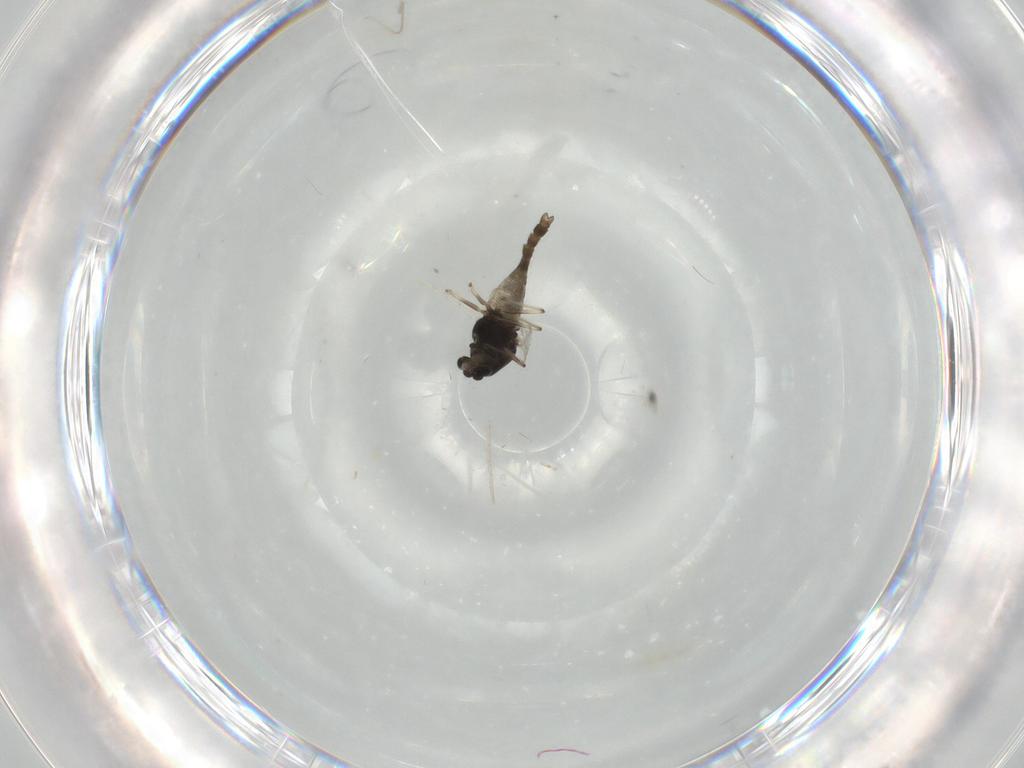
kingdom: Animalia
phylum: Arthropoda
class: Insecta
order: Diptera
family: Chironomidae
